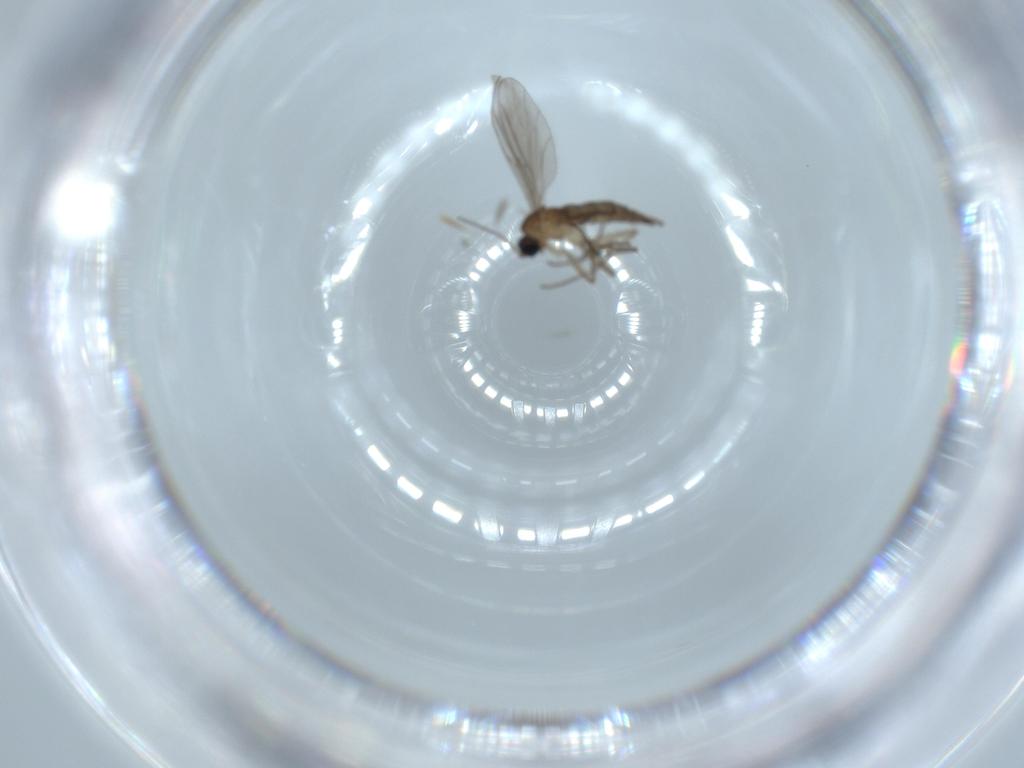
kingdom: Animalia
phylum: Arthropoda
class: Insecta
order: Diptera
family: Sciaridae
